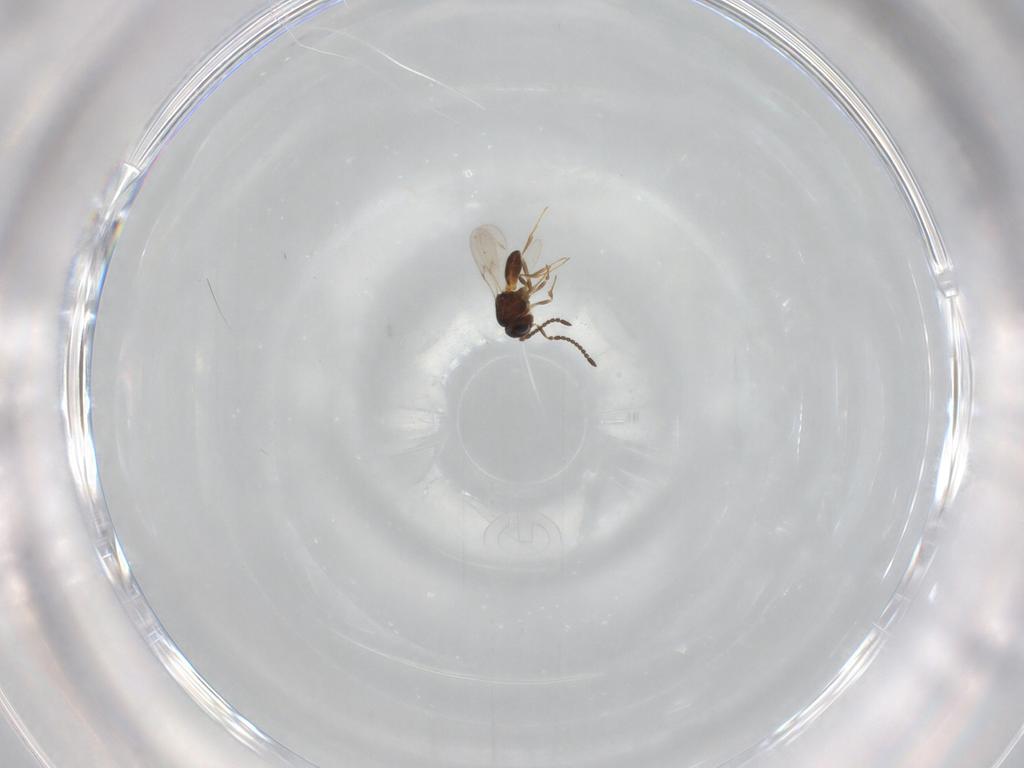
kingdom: Animalia
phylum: Arthropoda
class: Insecta
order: Hymenoptera
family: Scelionidae
